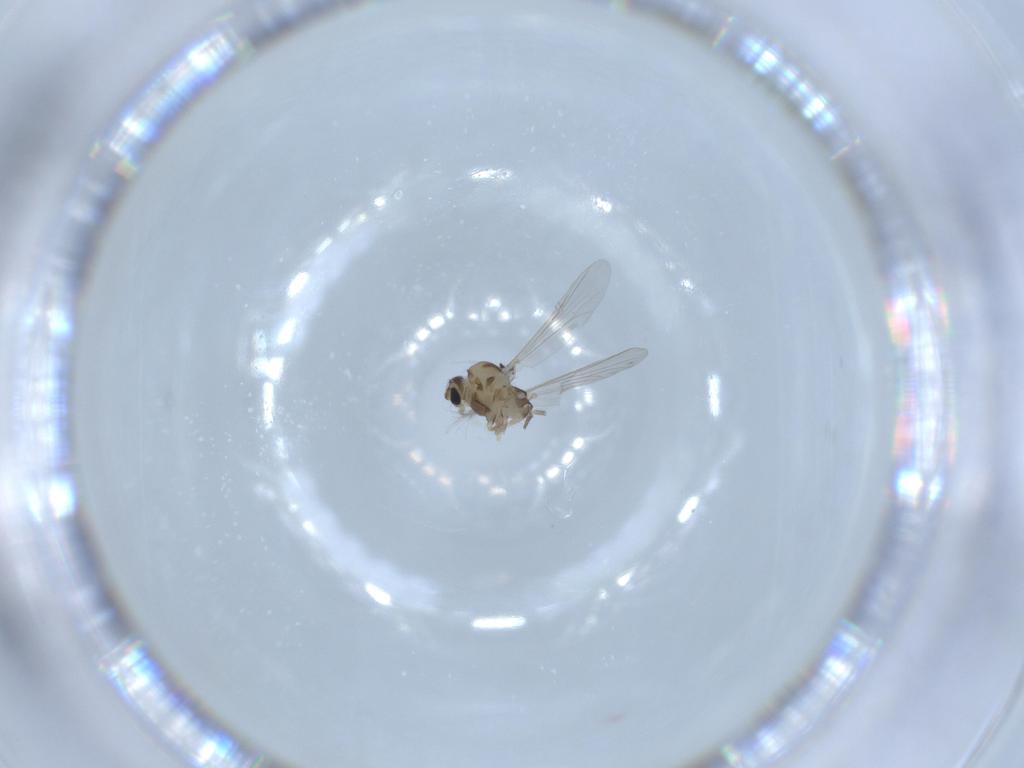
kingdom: Animalia
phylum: Arthropoda
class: Insecta
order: Diptera
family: Chironomidae
